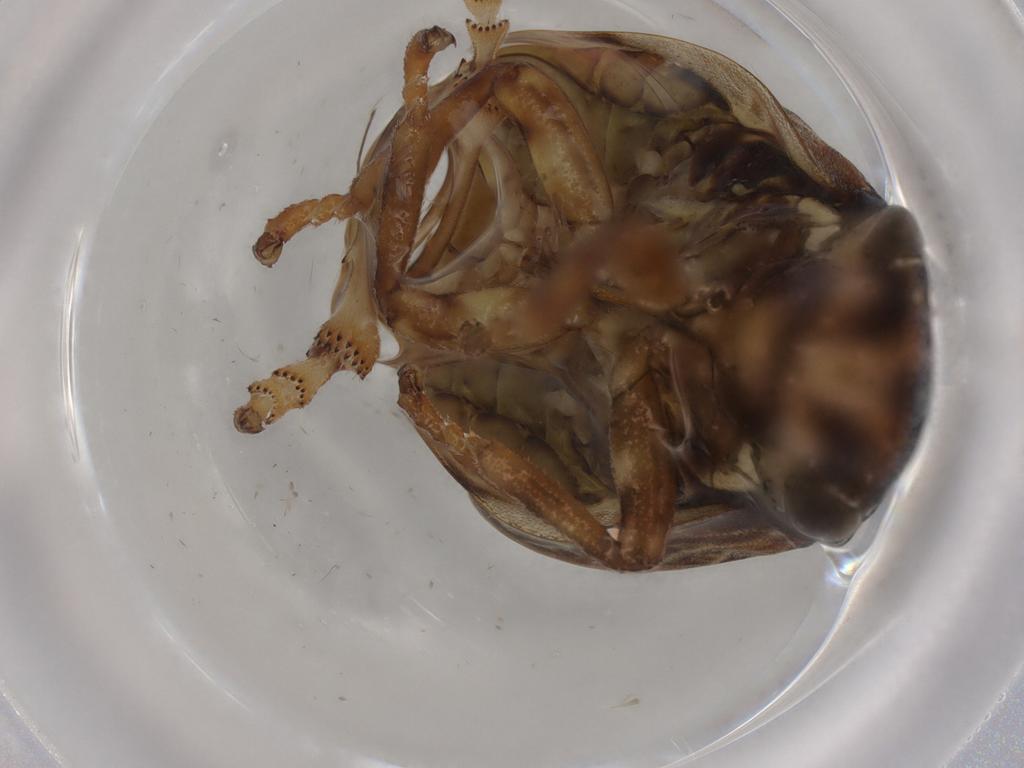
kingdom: Animalia
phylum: Arthropoda
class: Insecta
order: Hemiptera
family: Aphrophoridae
